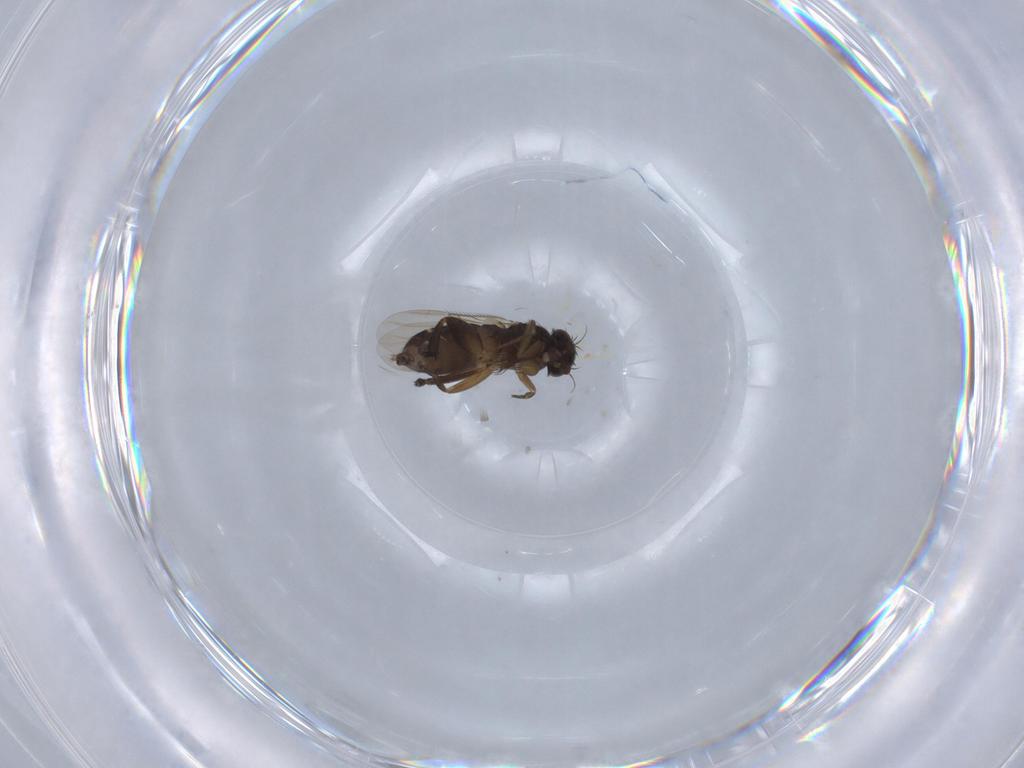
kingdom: Animalia
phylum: Arthropoda
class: Insecta
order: Diptera
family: Phoridae
